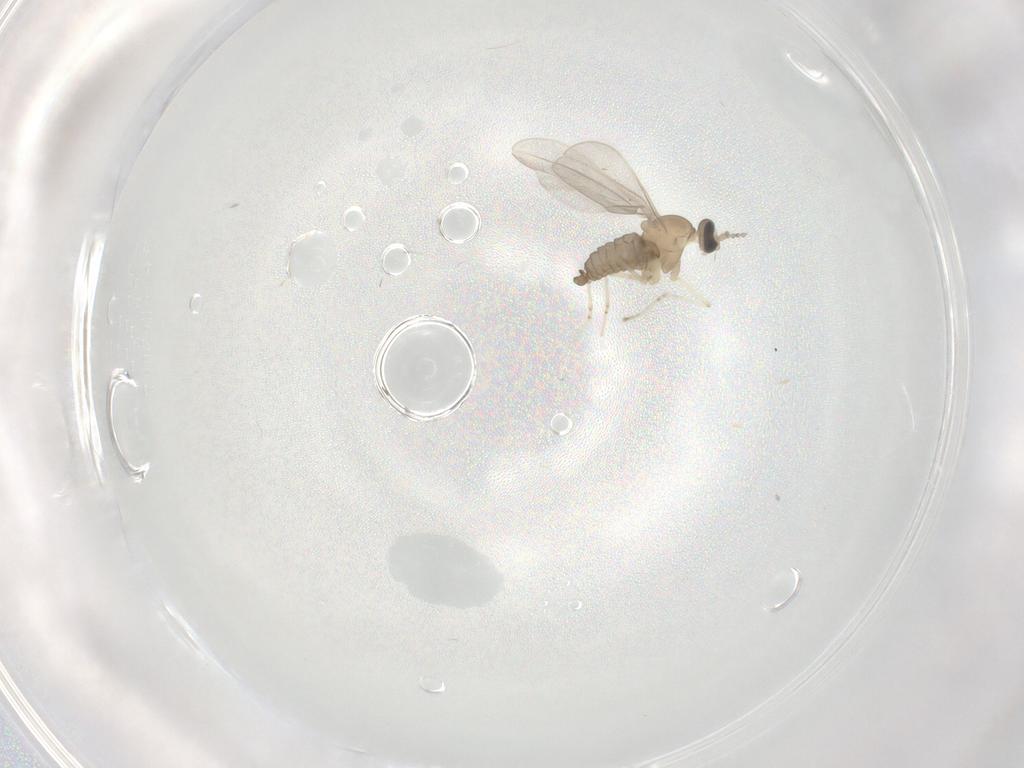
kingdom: Animalia
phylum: Arthropoda
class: Insecta
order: Diptera
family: Cecidomyiidae
